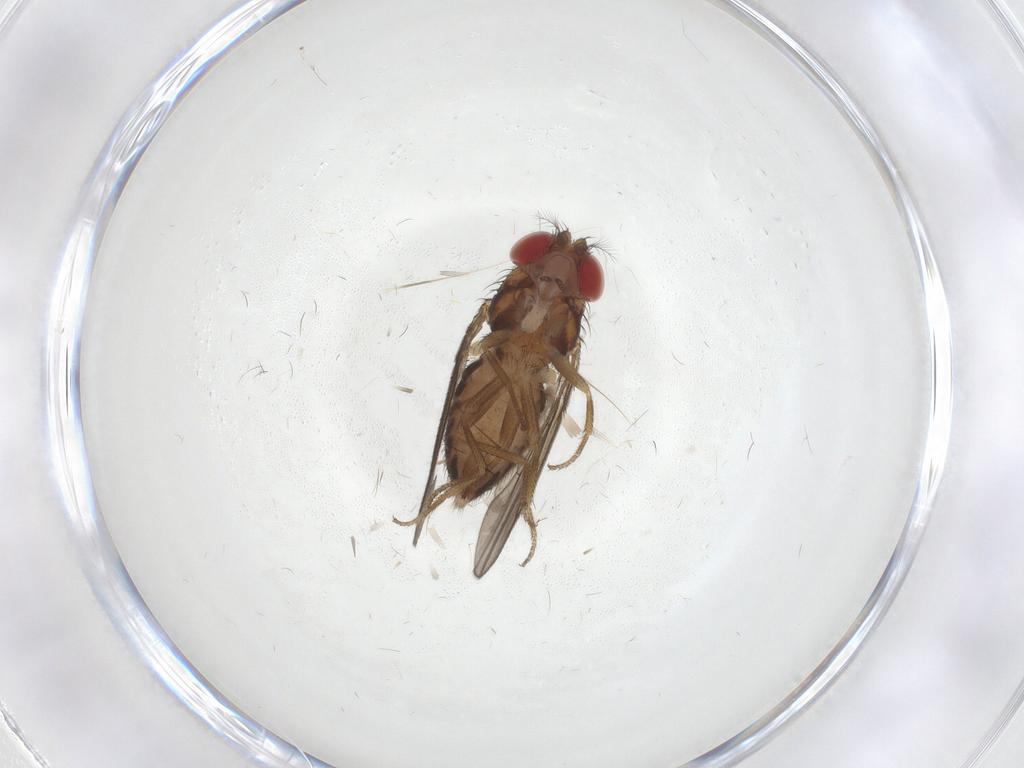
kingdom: Animalia
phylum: Arthropoda
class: Insecta
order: Diptera
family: Drosophilidae
